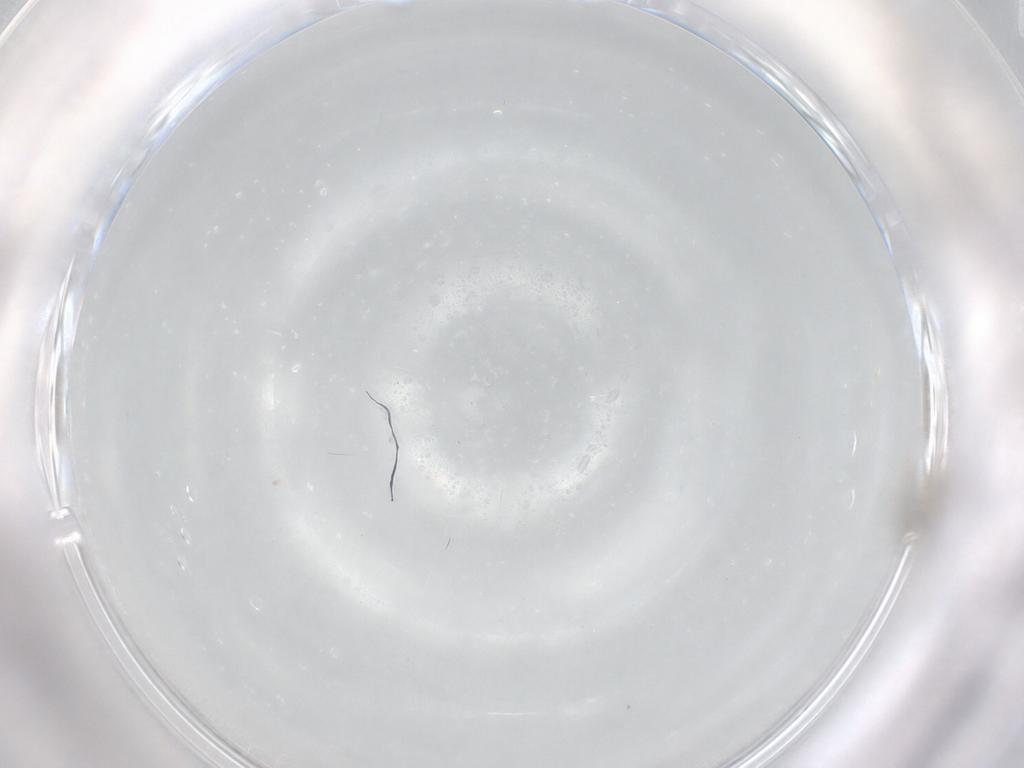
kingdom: Animalia
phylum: Arthropoda
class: Insecta
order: Diptera
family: Cecidomyiidae
